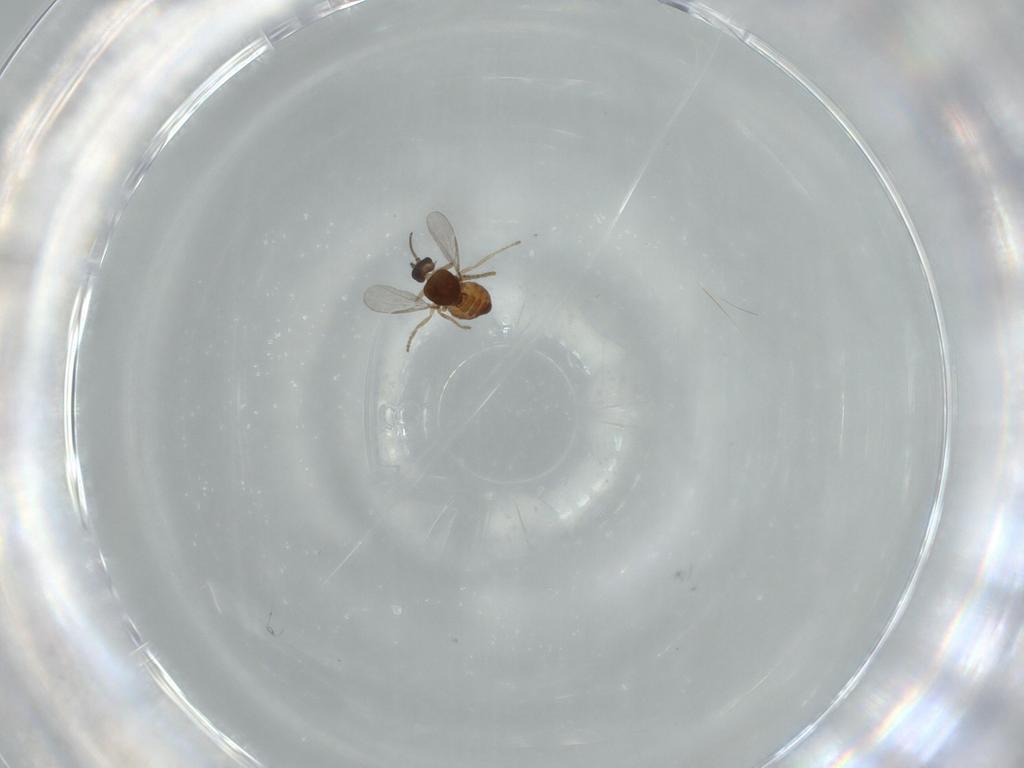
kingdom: Animalia
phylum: Arthropoda
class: Insecta
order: Diptera
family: Ceratopogonidae
